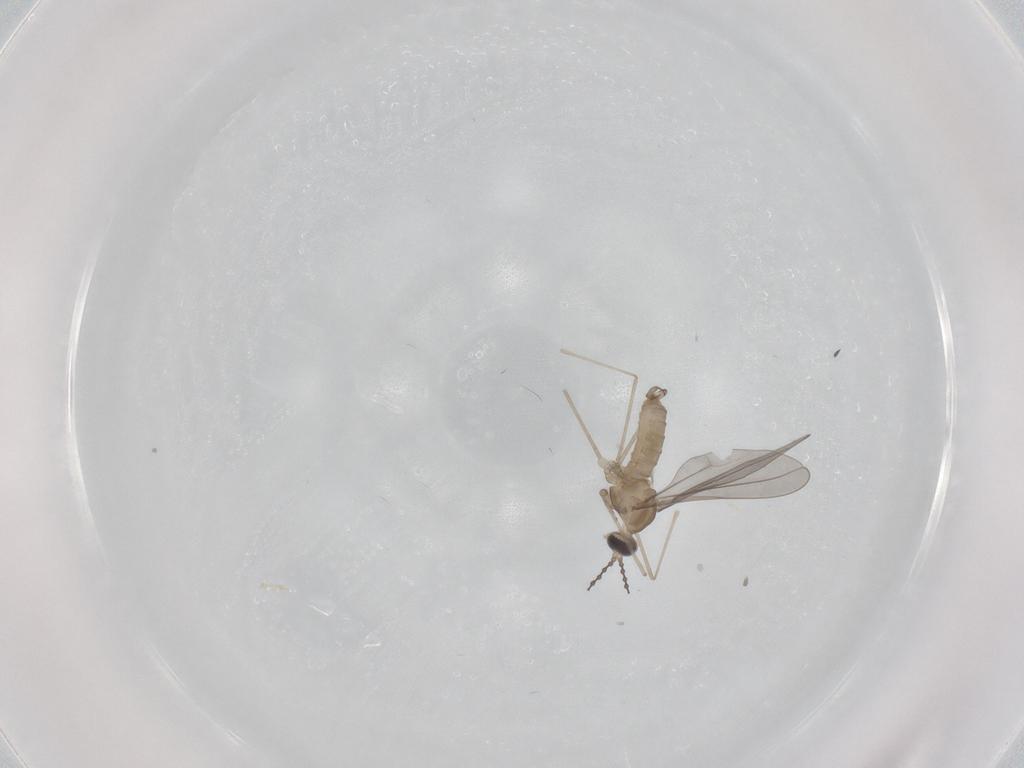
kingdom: Animalia
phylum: Arthropoda
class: Insecta
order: Diptera
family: Cecidomyiidae
